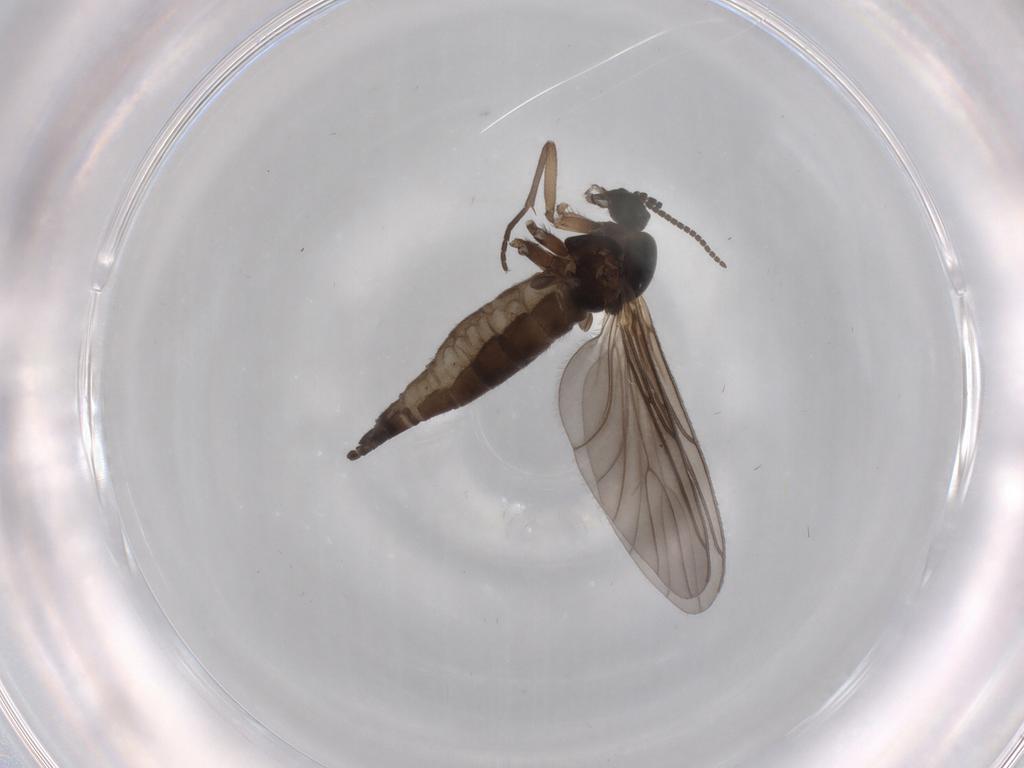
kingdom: Animalia
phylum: Arthropoda
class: Insecta
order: Diptera
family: Sciaridae
